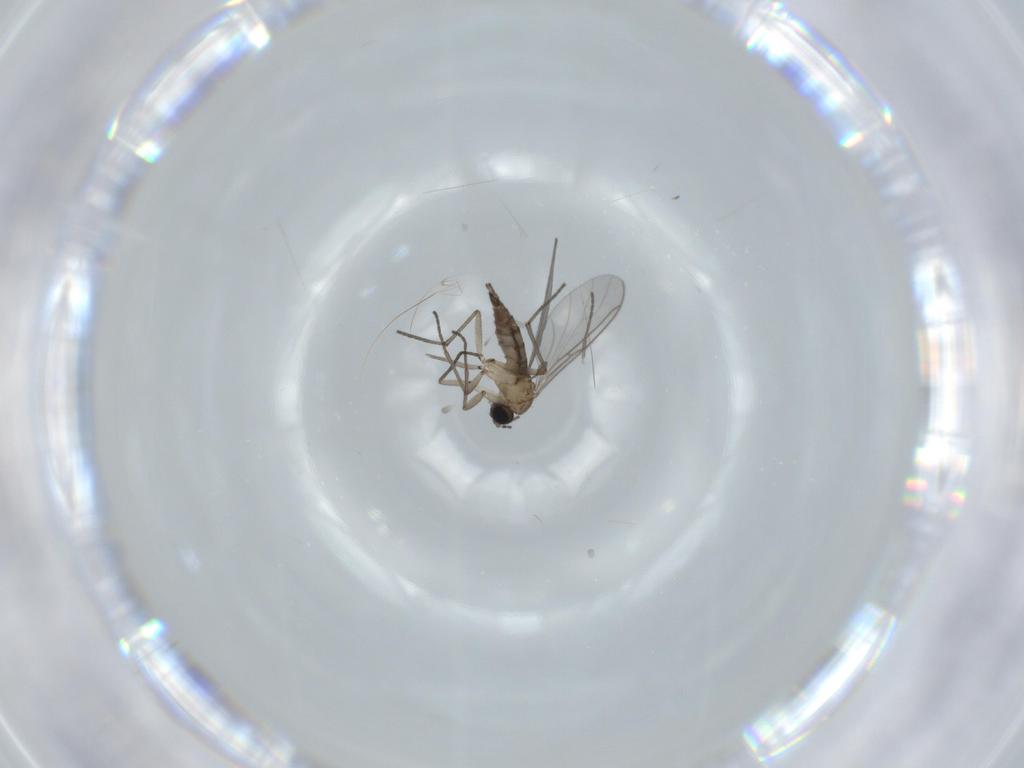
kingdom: Animalia
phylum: Arthropoda
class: Insecta
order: Diptera
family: Sciaridae
